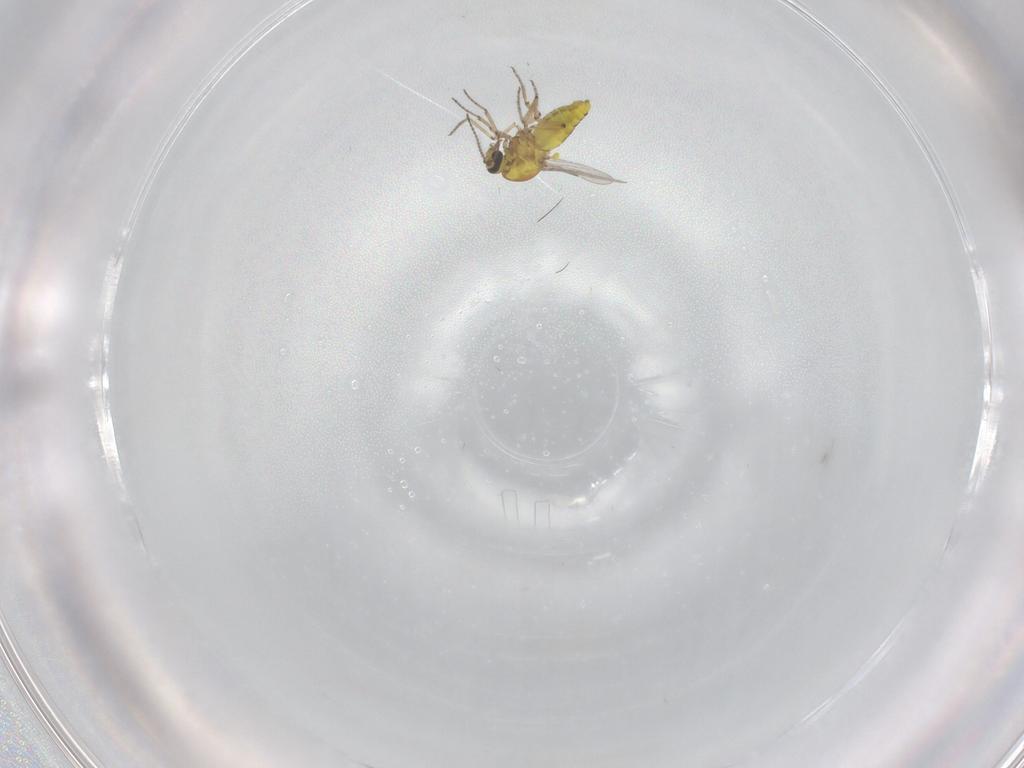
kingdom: Animalia
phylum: Arthropoda
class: Insecta
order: Diptera
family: Ceratopogonidae
